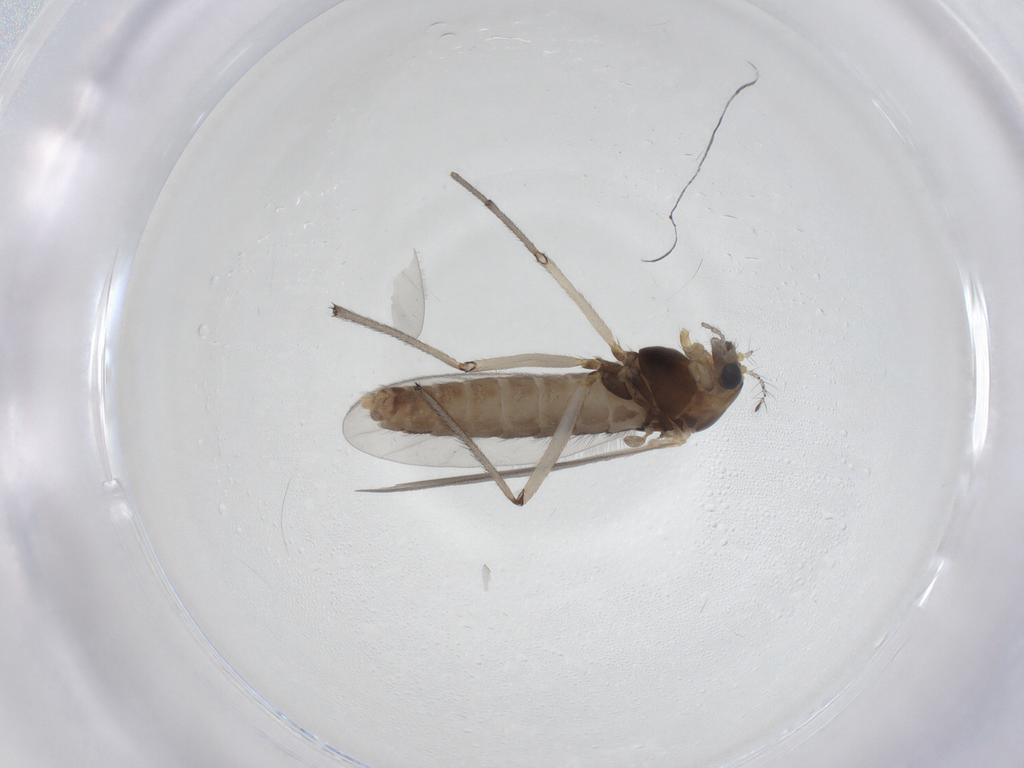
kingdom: Animalia
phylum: Arthropoda
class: Insecta
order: Diptera
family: Chironomidae
